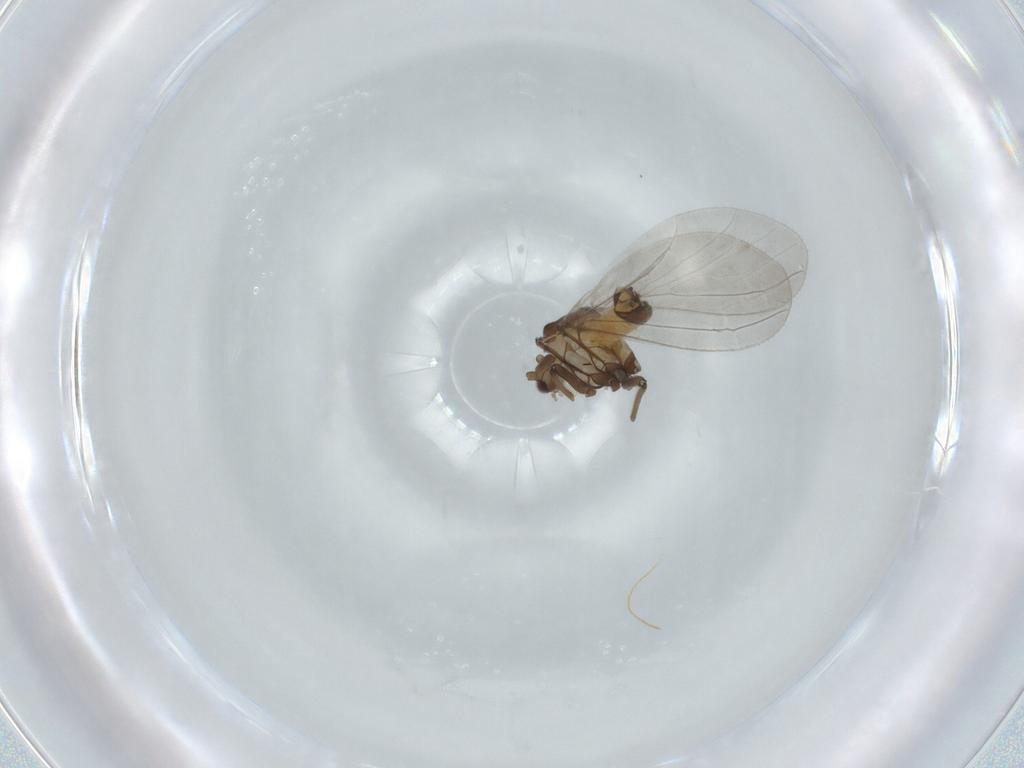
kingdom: Animalia
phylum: Arthropoda
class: Insecta
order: Neuroptera
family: Coniopterygidae
